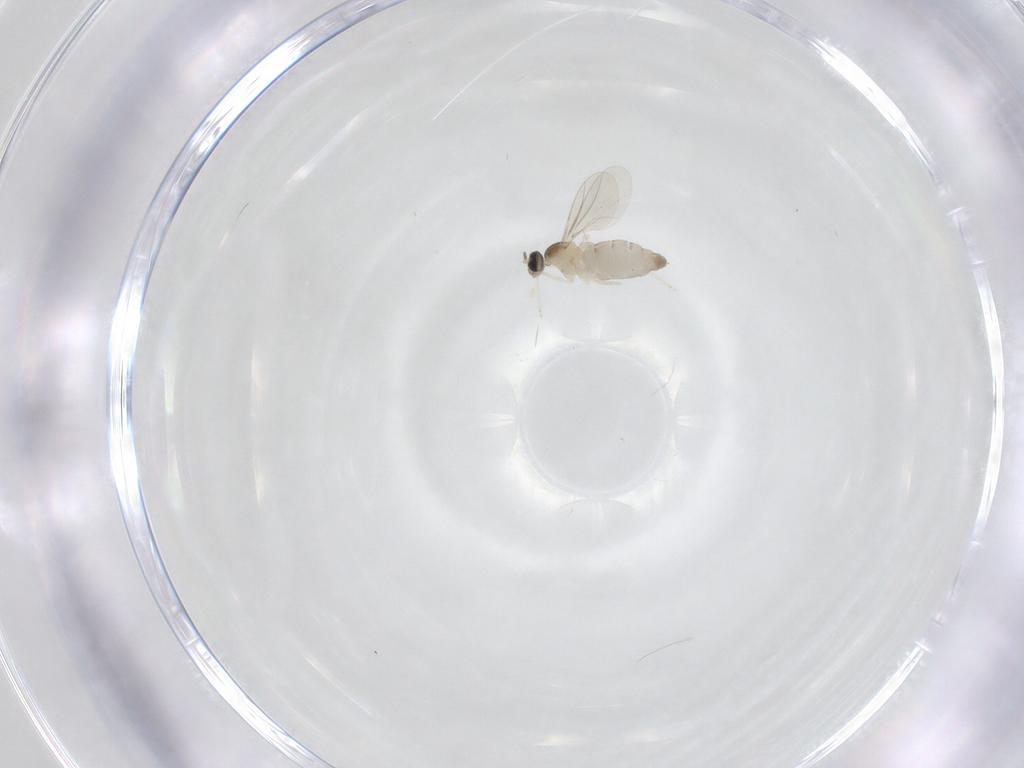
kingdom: Animalia
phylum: Arthropoda
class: Insecta
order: Diptera
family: Cecidomyiidae
